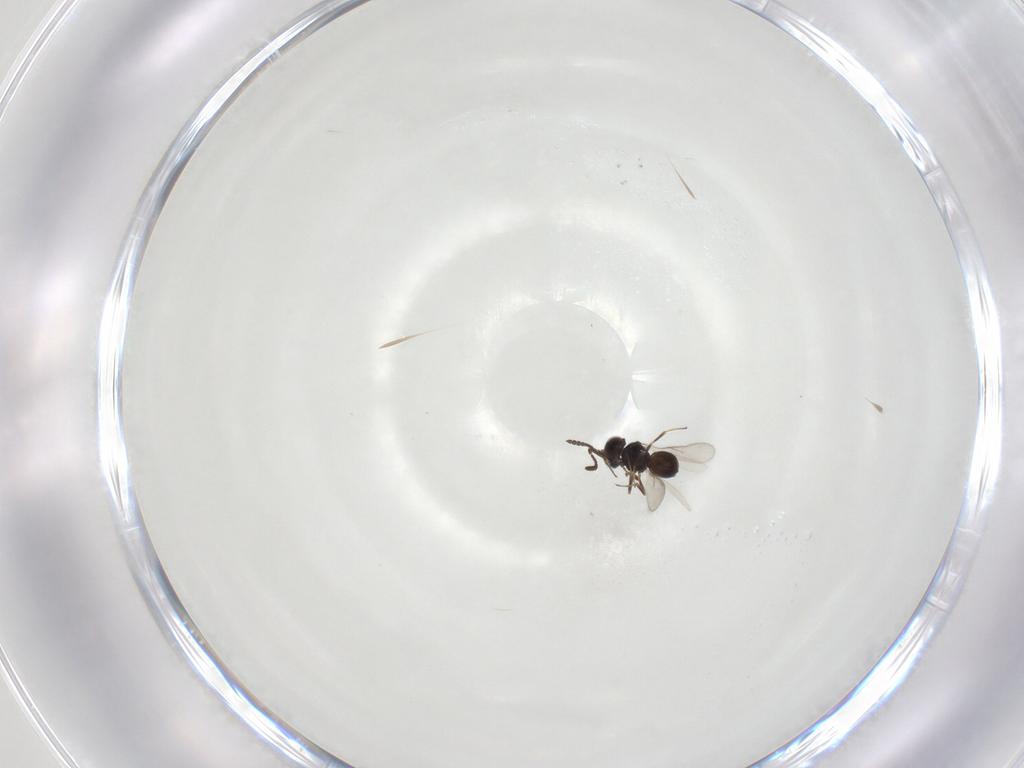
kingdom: Animalia
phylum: Arthropoda
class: Insecta
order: Hymenoptera
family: Scelionidae
